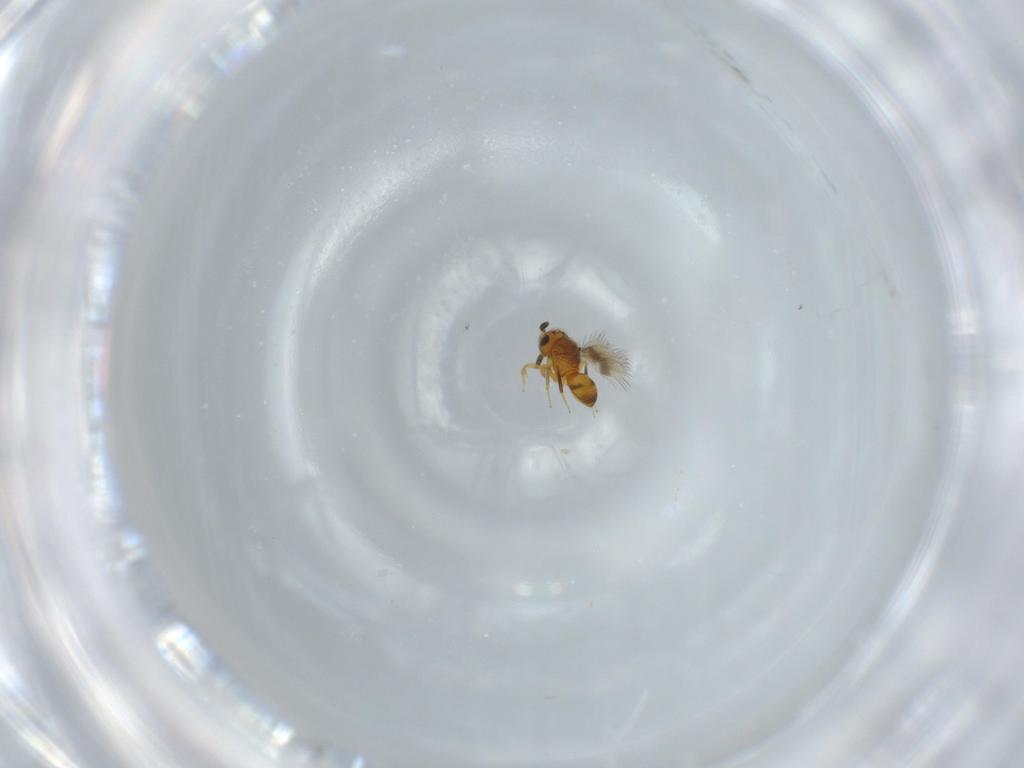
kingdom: Animalia
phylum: Arthropoda
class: Insecta
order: Hymenoptera
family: Scelionidae
